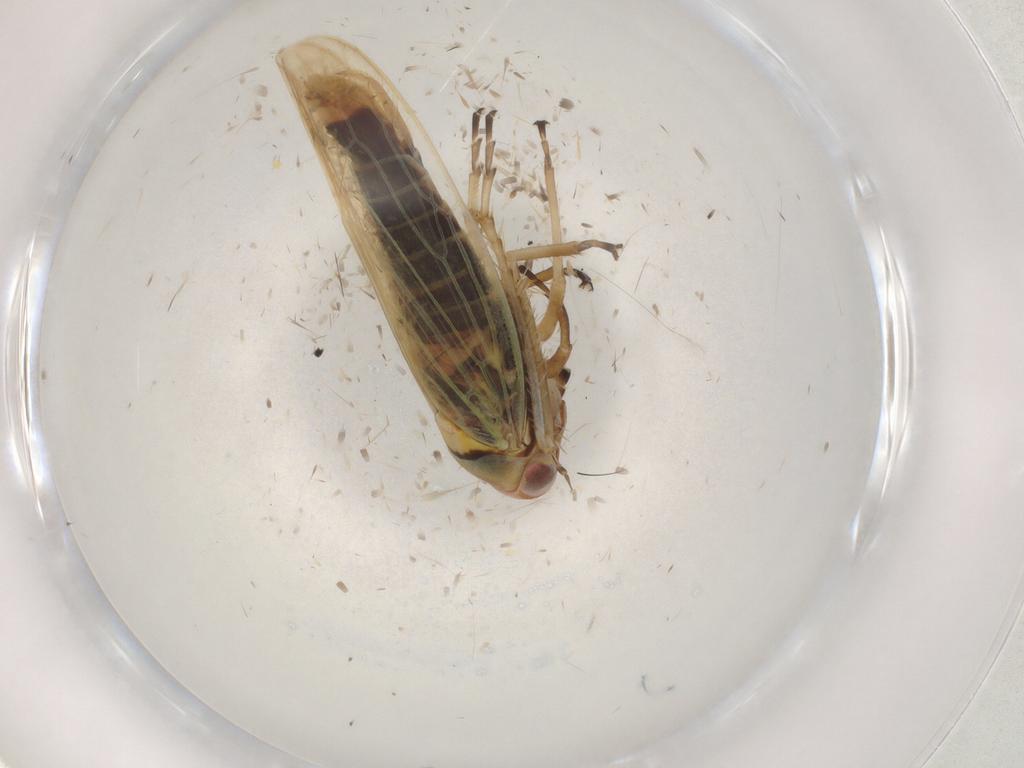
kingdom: Animalia
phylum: Arthropoda
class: Insecta
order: Hemiptera
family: Cicadellidae
